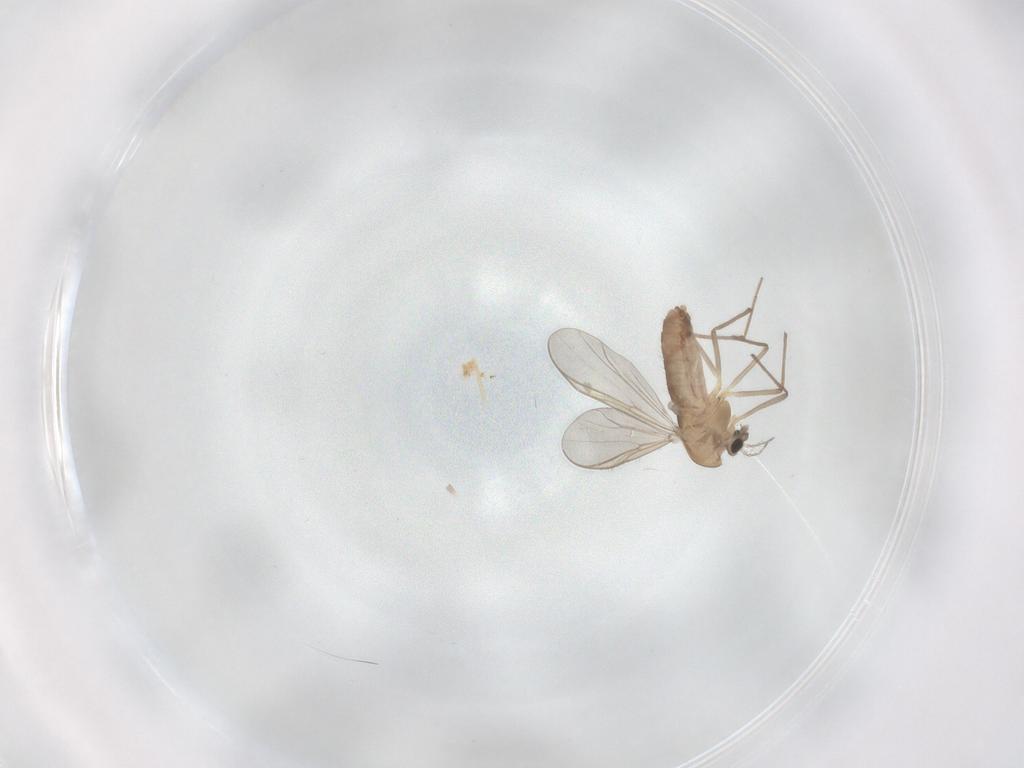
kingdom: Animalia
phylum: Arthropoda
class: Insecta
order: Diptera
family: Chironomidae
